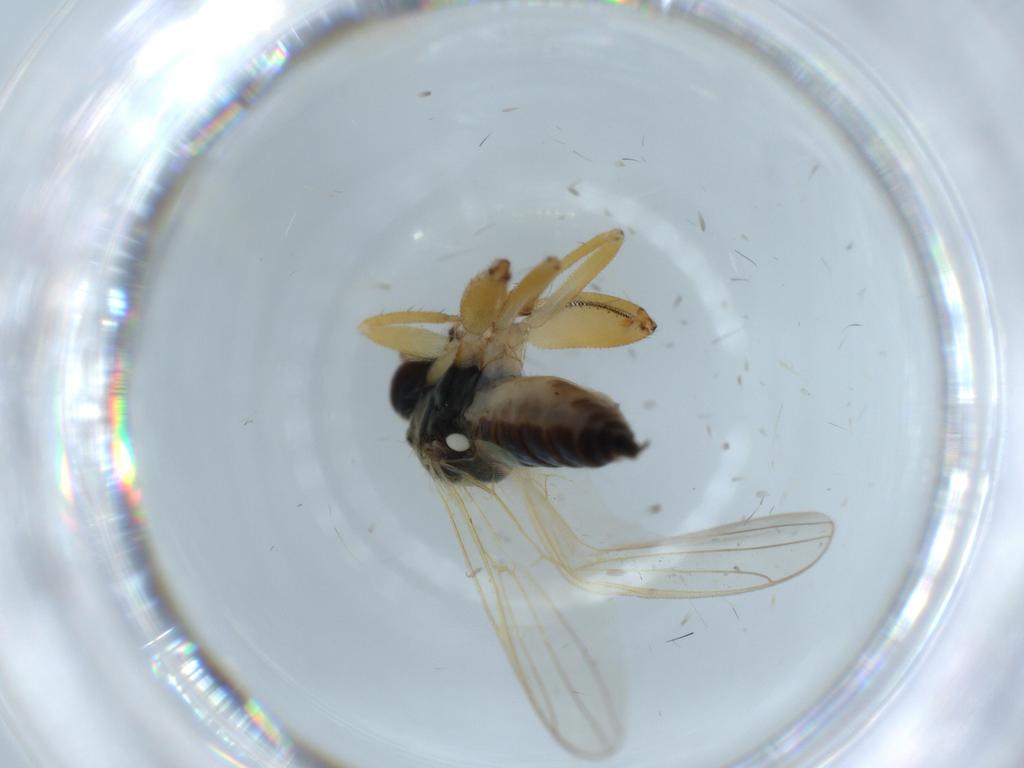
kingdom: Animalia
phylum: Arthropoda
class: Insecta
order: Diptera
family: Hybotidae
